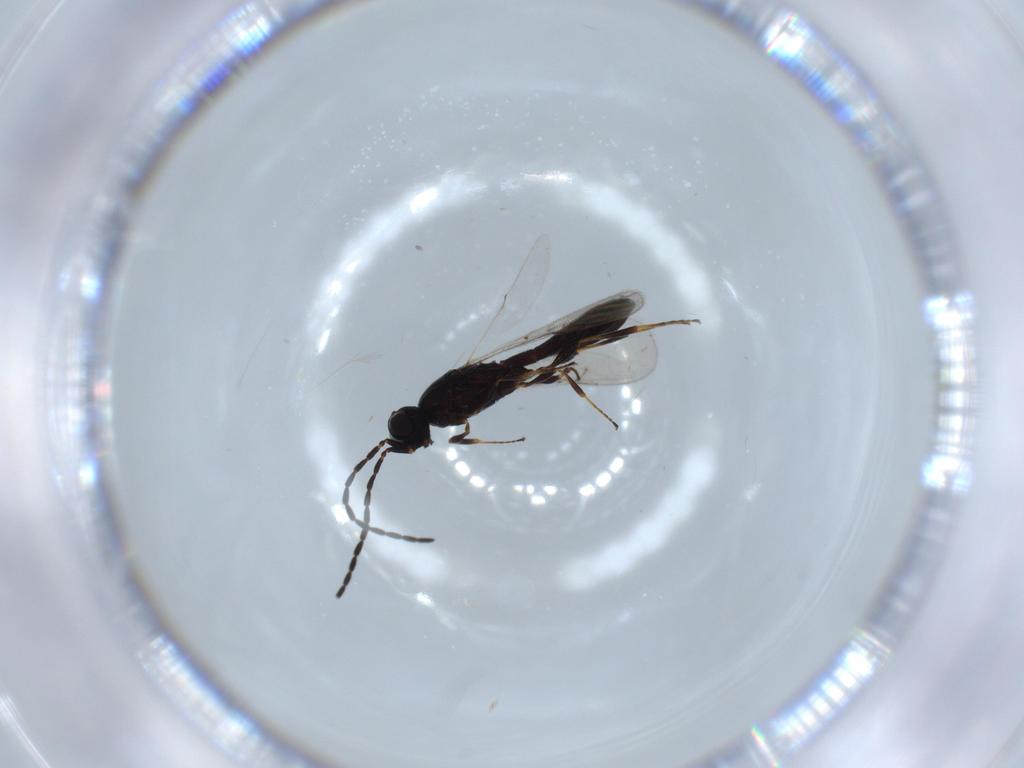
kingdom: Animalia
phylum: Arthropoda
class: Insecta
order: Hymenoptera
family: Scelionidae
